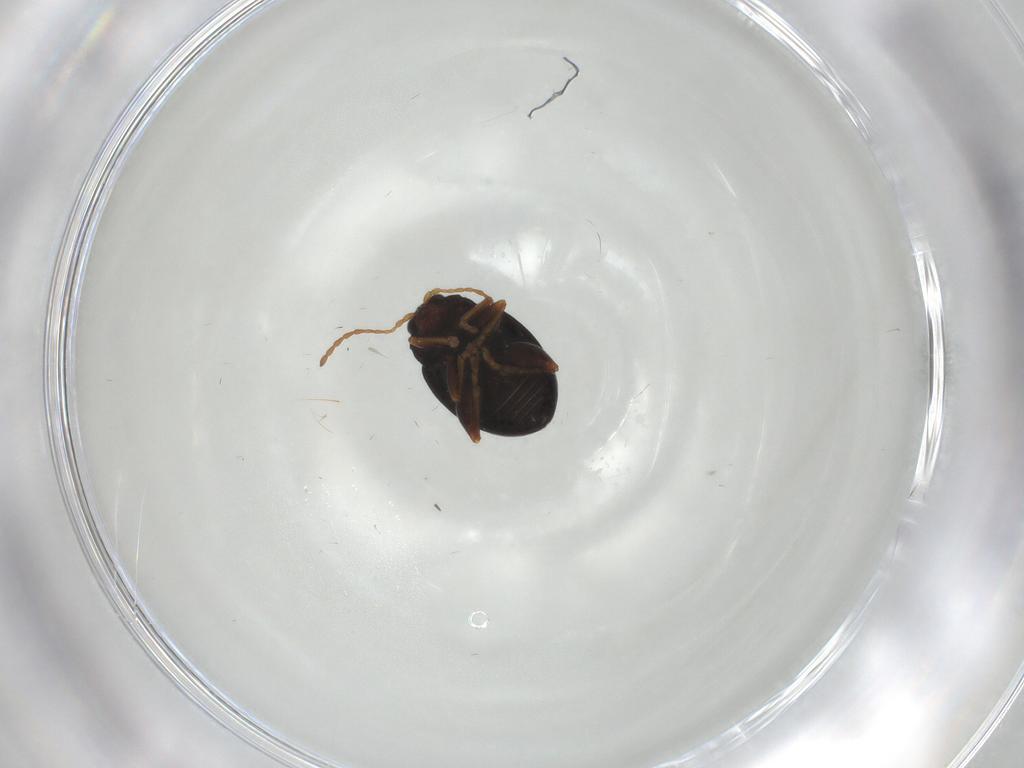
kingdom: Animalia
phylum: Arthropoda
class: Insecta
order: Coleoptera
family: Chrysomelidae
